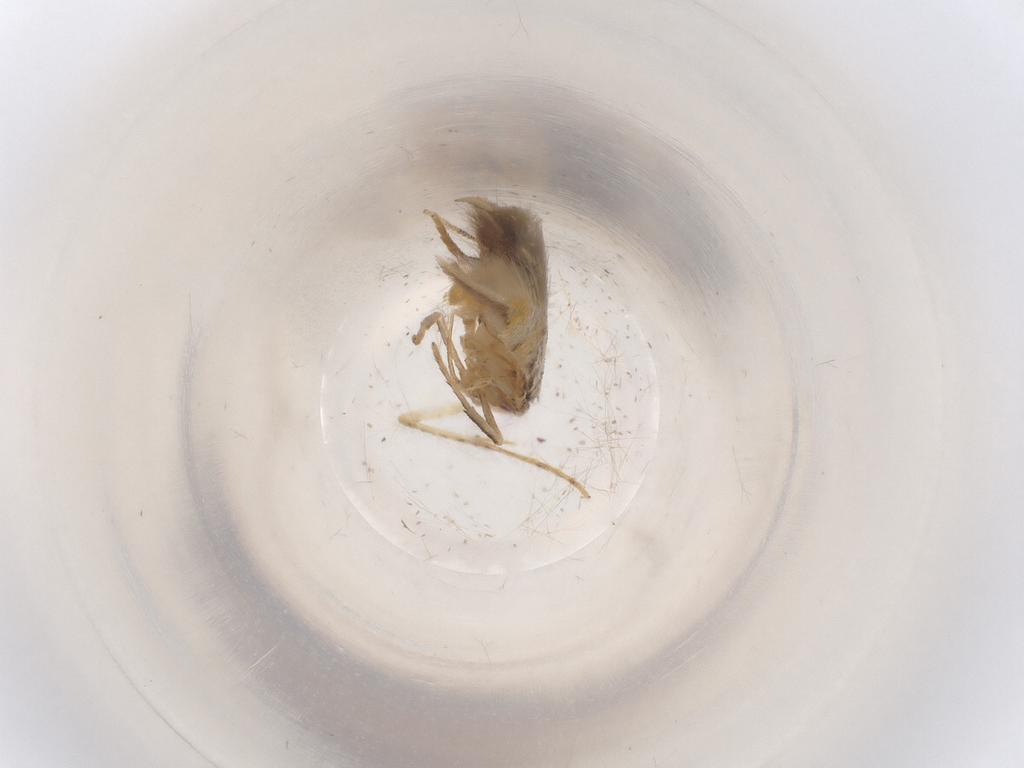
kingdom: Animalia
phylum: Arthropoda
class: Insecta
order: Lepidoptera
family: Cosmopterigidae
